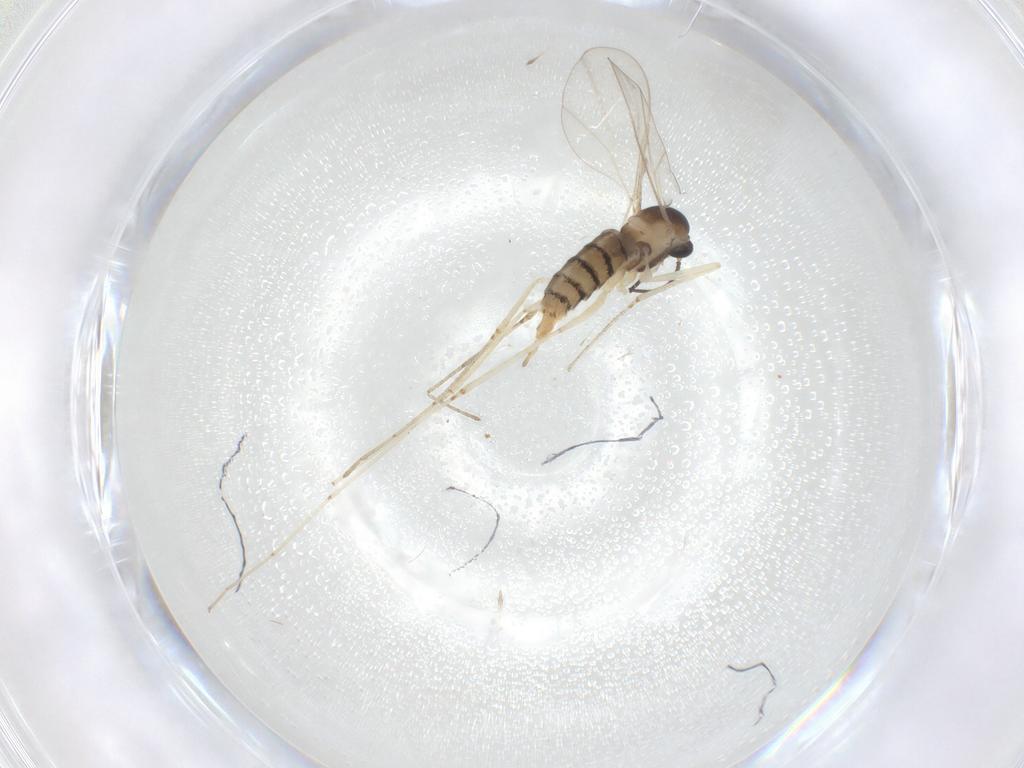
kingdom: Animalia
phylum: Arthropoda
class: Insecta
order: Diptera
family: Cecidomyiidae
